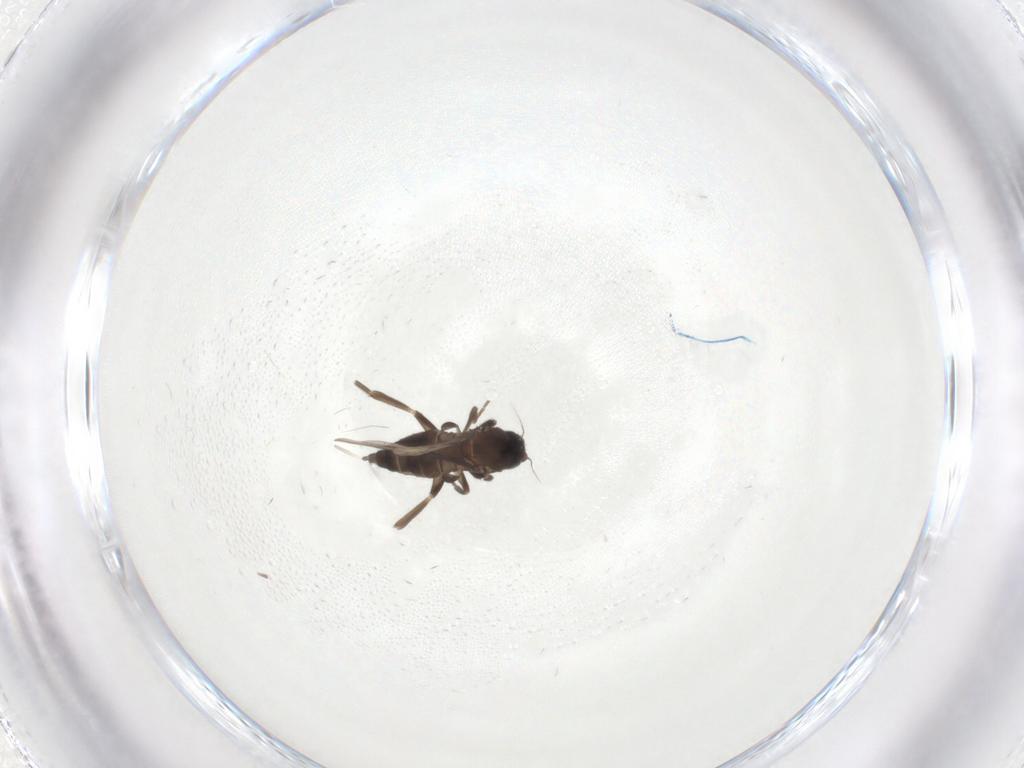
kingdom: Animalia
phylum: Arthropoda
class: Insecta
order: Diptera
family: Phoridae
